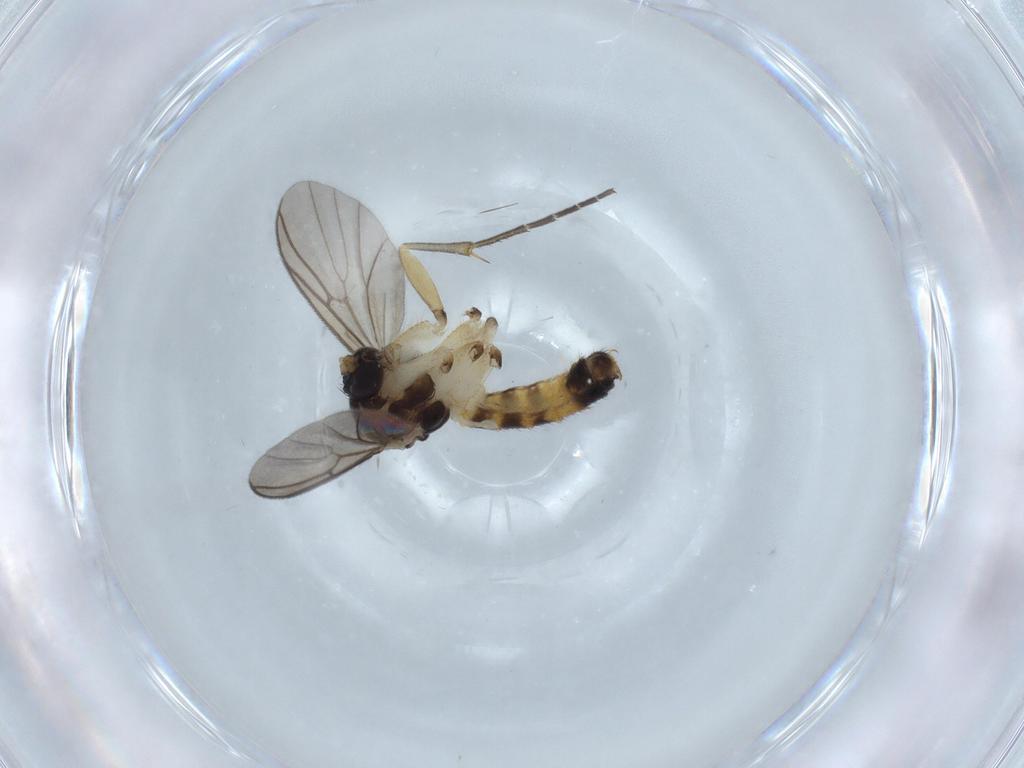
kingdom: Animalia
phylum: Arthropoda
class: Insecta
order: Diptera
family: Mycetophilidae
